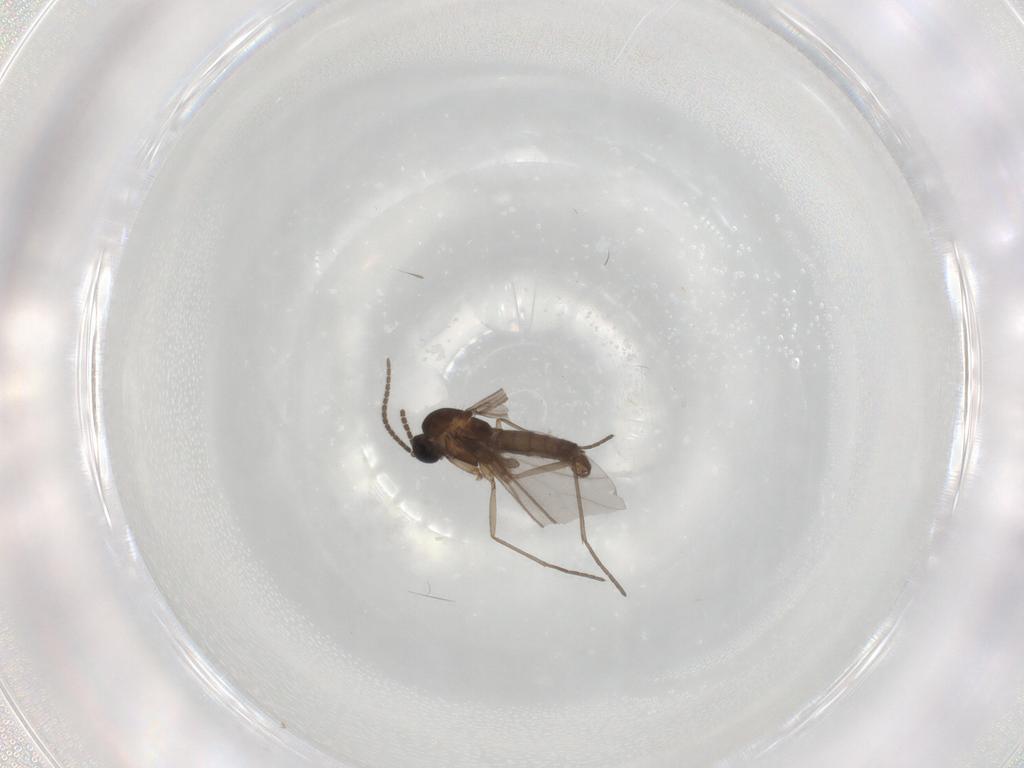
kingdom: Animalia
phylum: Arthropoda
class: Insecta
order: Diptera
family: Sciaridae
